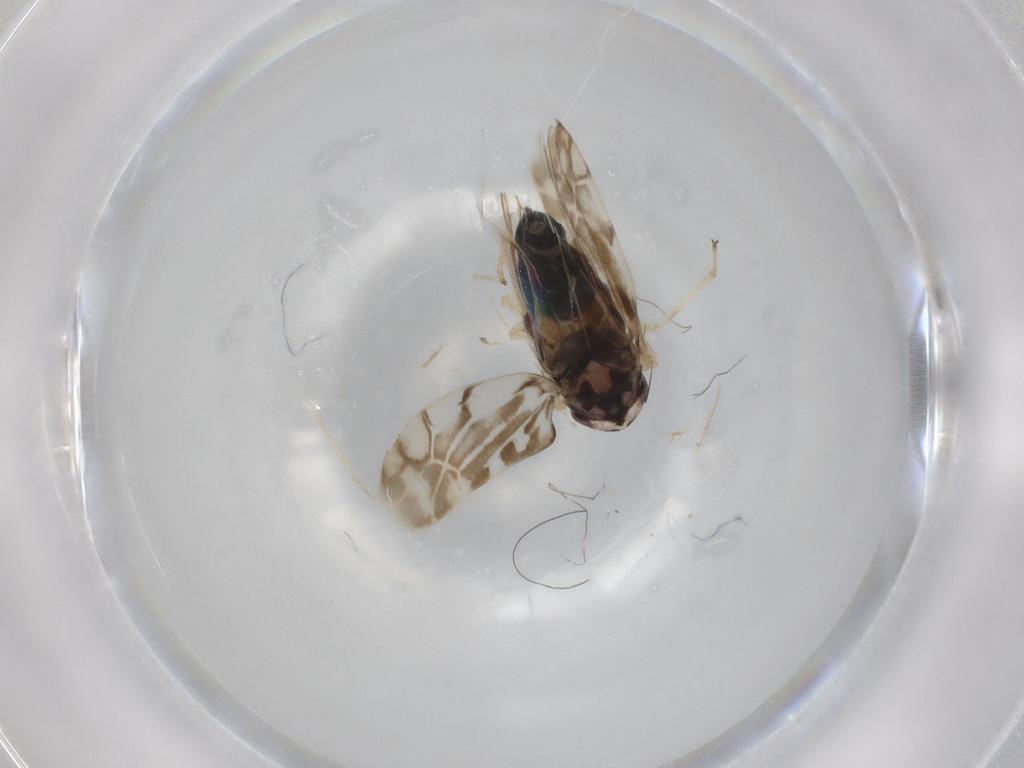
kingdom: Animalia
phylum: Arthropoda
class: Insecta
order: Hemiptera
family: Cicadellidae
